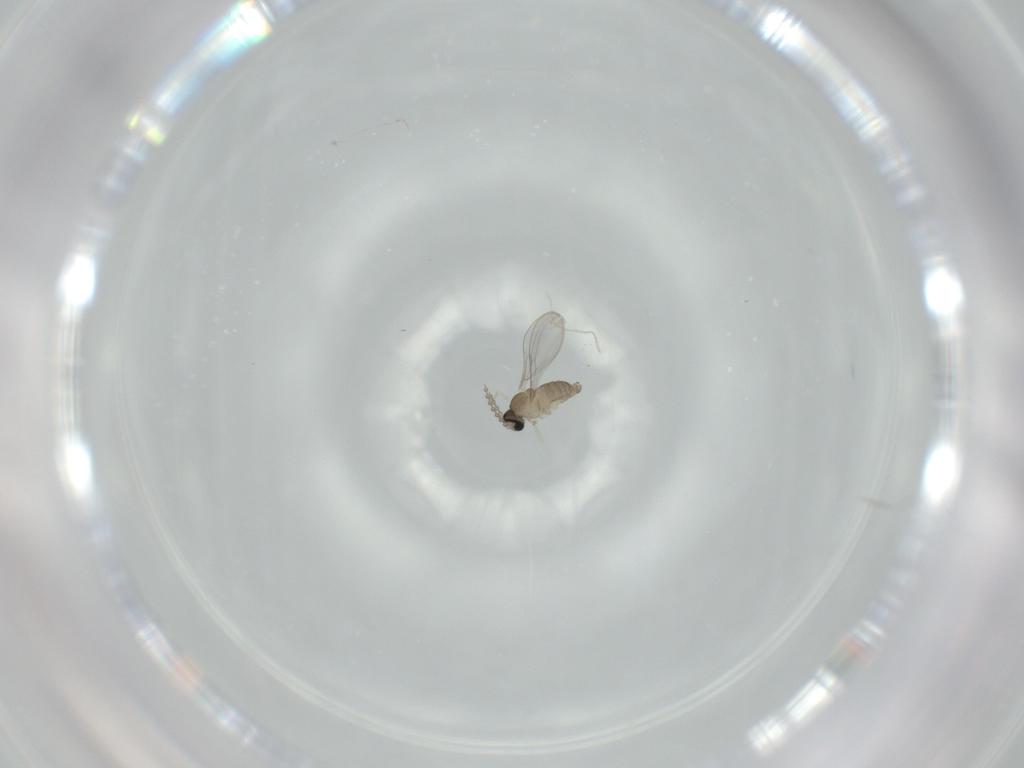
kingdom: Animalia
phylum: Arthropoda
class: Insecta
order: Diptera
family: Cecidomyiidae
